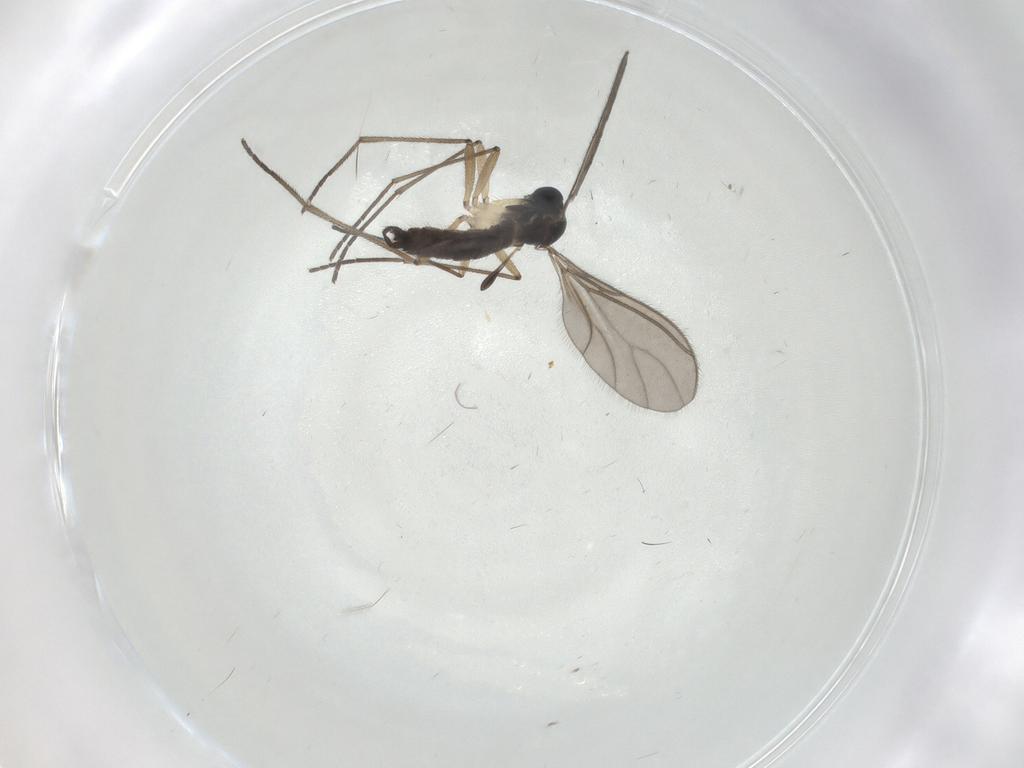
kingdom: Animalia
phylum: Arthropoda
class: Insecta
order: Diptera
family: Sciaridae
